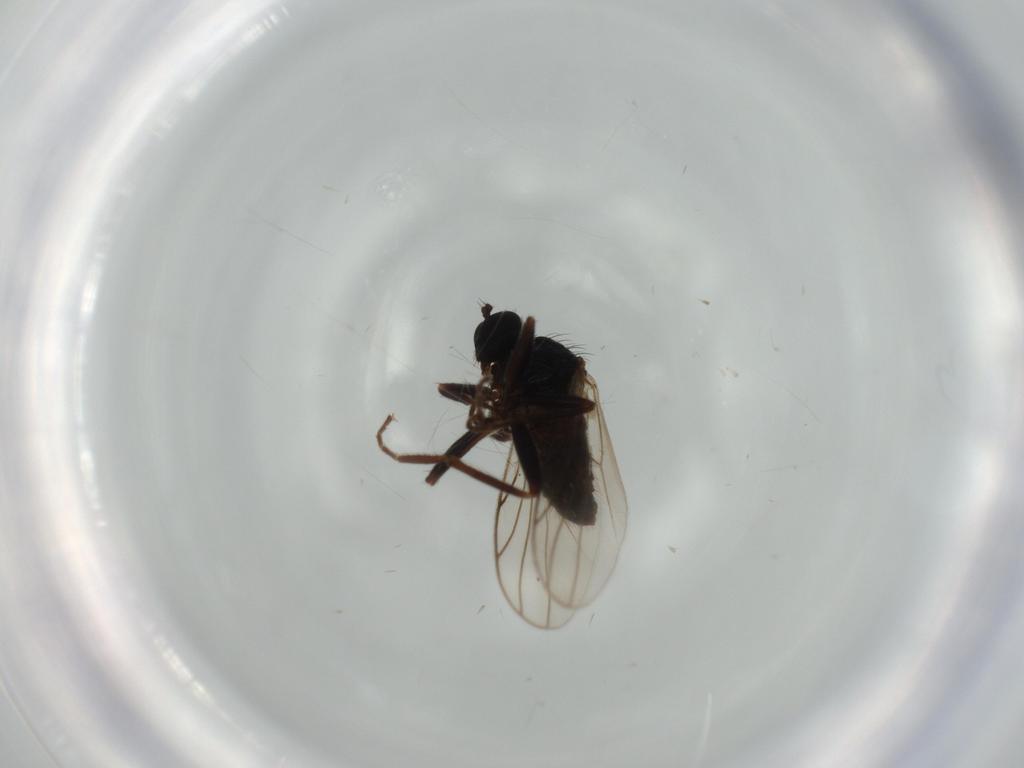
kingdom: Animalia
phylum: Arthropoda
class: Insecta
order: Diptera
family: Hybotidae
